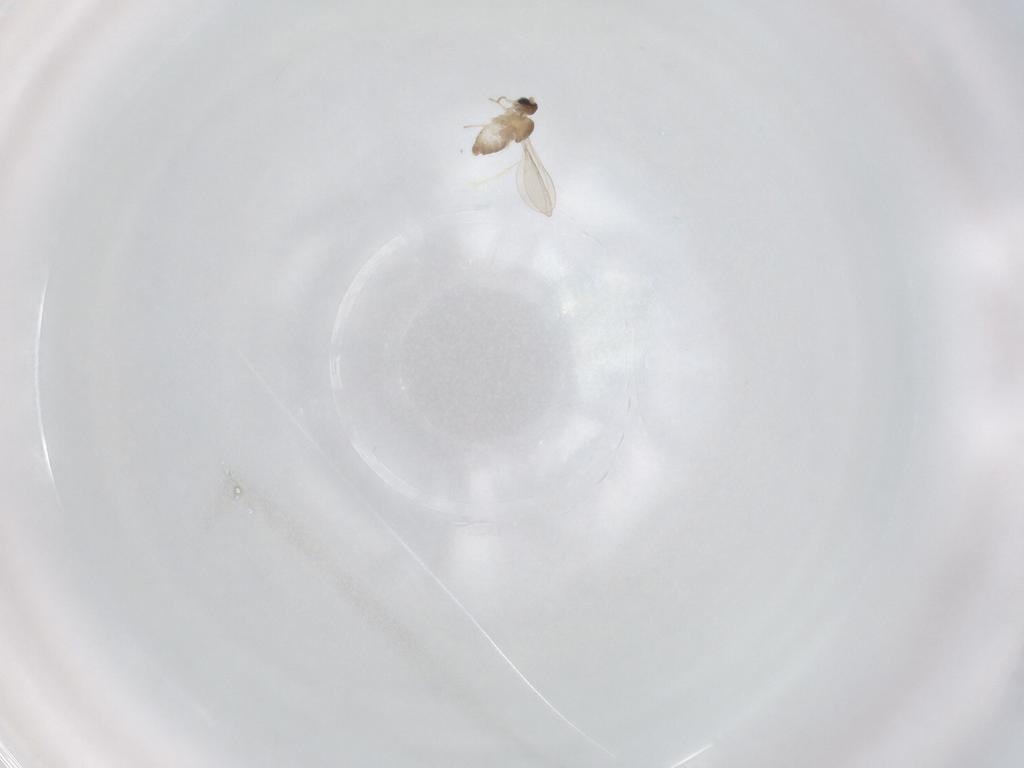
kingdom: Animalia
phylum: Arthropoda
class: Insecta
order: Diptera
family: Cecidomyiidae
